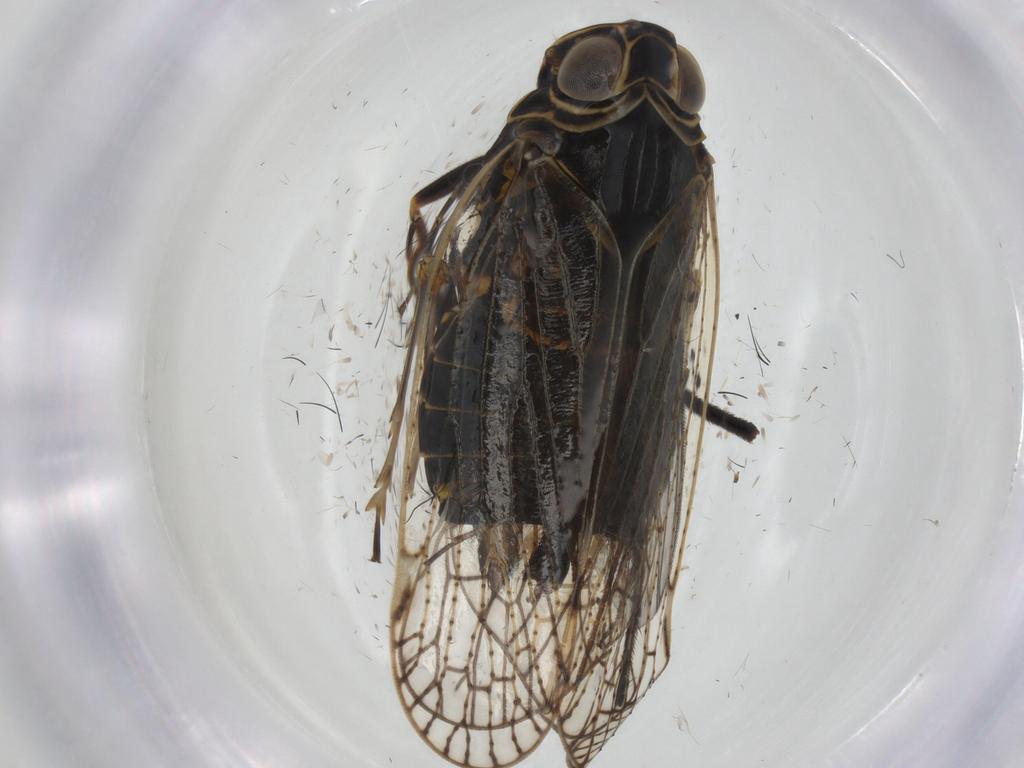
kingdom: Animalia
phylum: Arthropoda
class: Insecta
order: Hemiptera
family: Cixiidae
